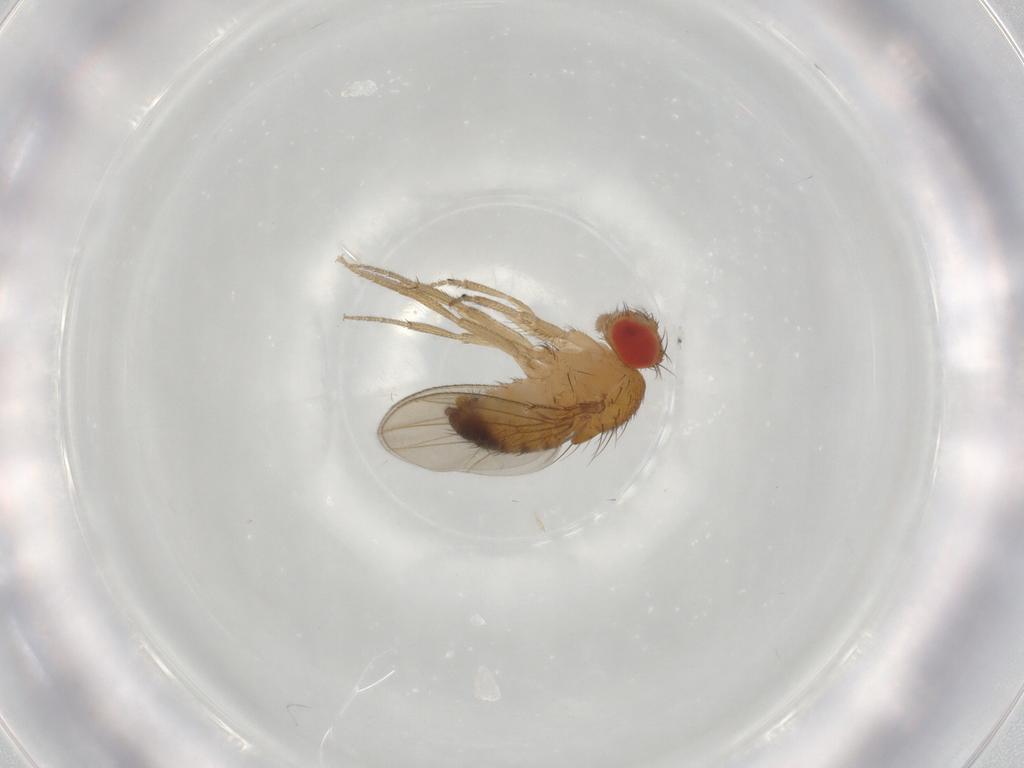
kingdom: Animalia
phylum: Arthropoda
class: Insecta
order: Diptera
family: Drosophilidae
